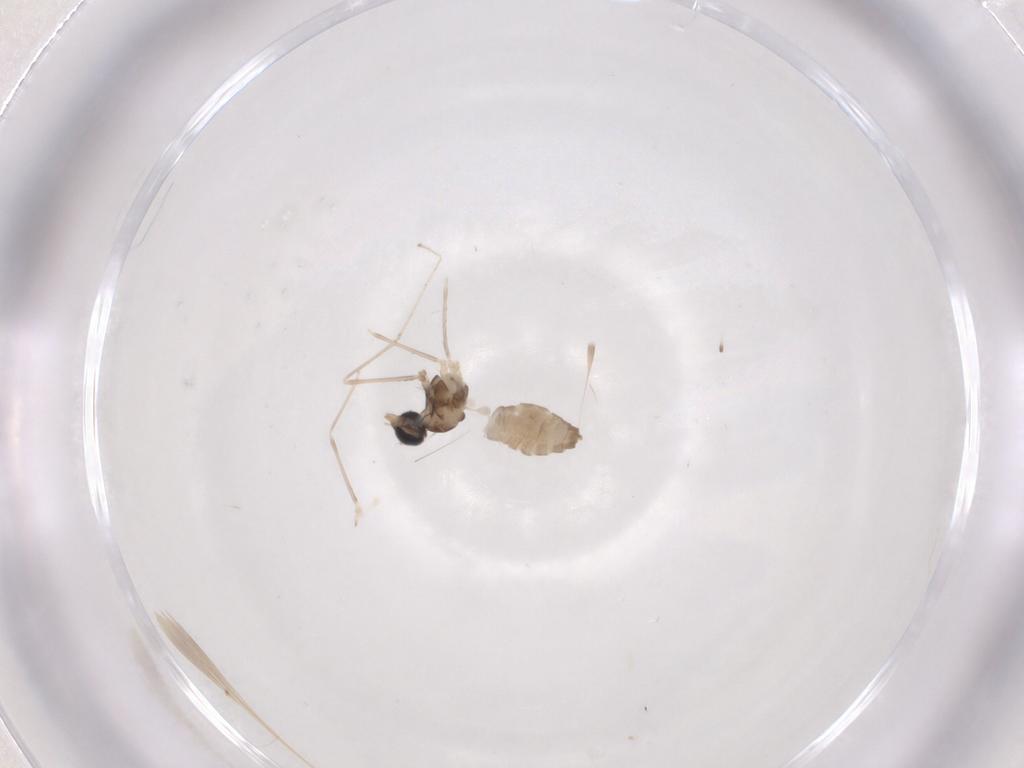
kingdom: Animalia
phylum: Arthropoda
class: Insecta
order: Diptera
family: Cecidomyiidae
